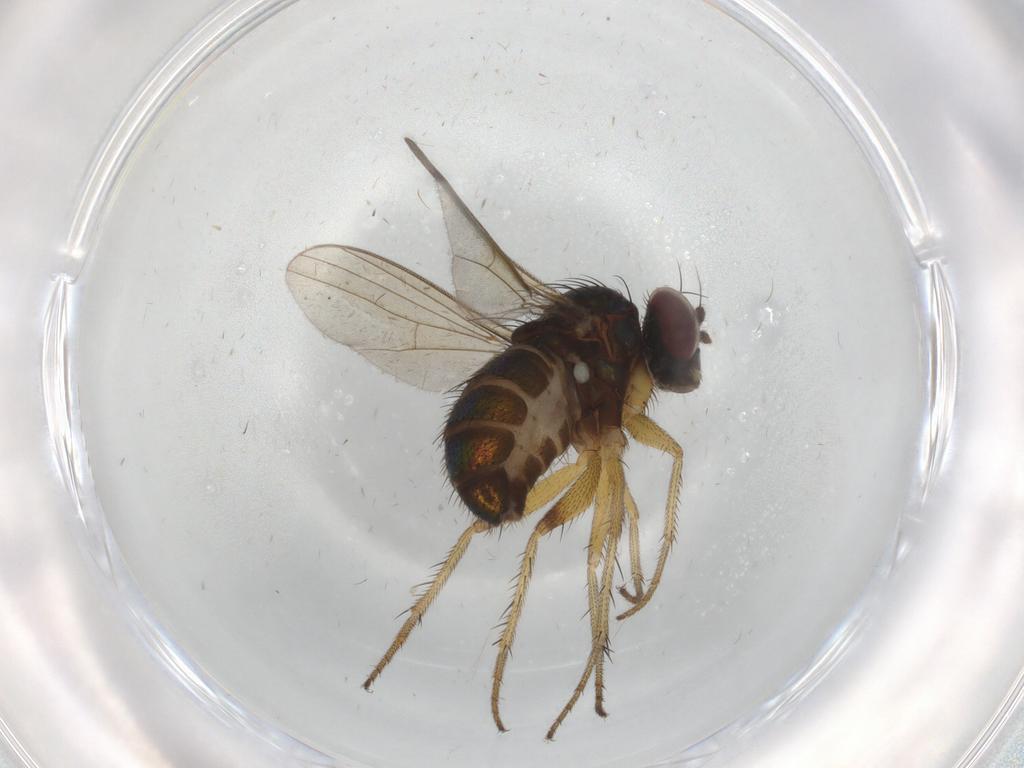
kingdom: Animalia
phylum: Arthropoda
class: Insecta
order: Diptera
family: Dolichopodidae
